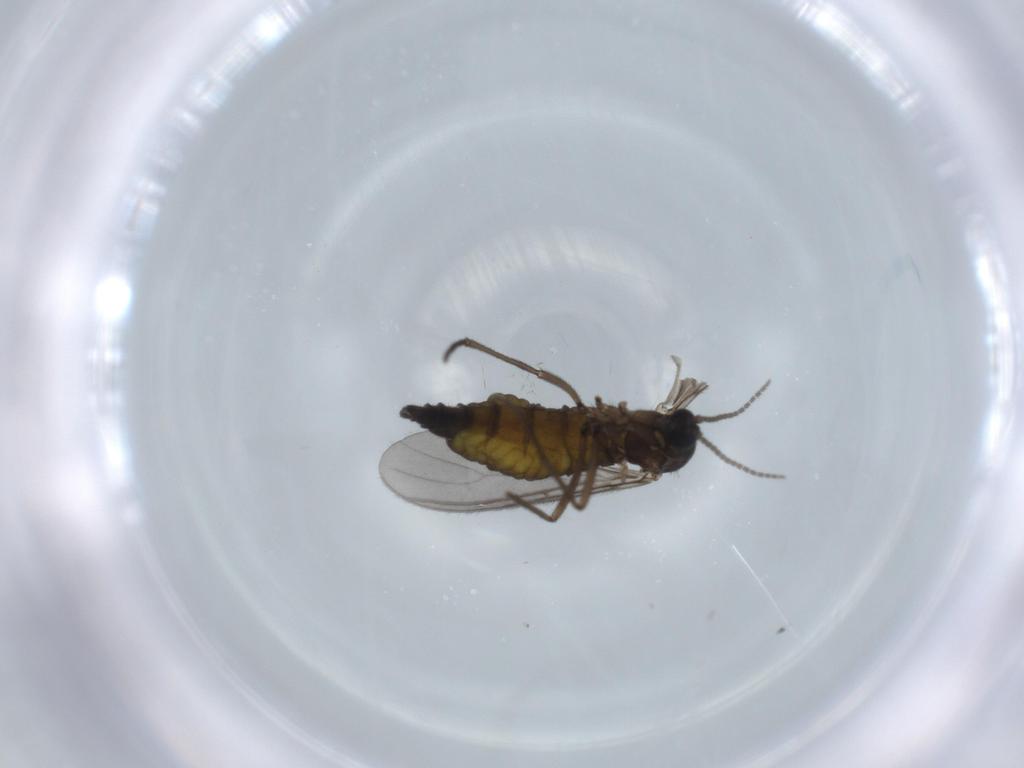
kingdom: Animalia
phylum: Arthropoda
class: Insecta
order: Diptera
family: Sciaridae
